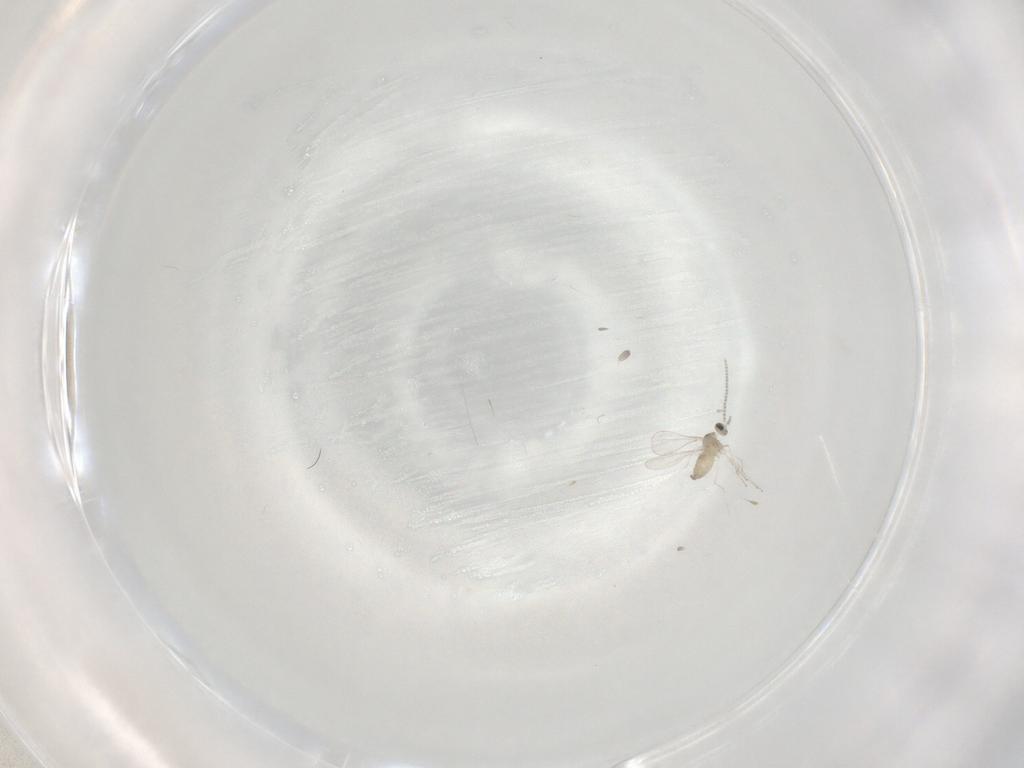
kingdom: Animalia
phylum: Arthropoda
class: Insecta
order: Diptera
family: Cecidomyiidae
